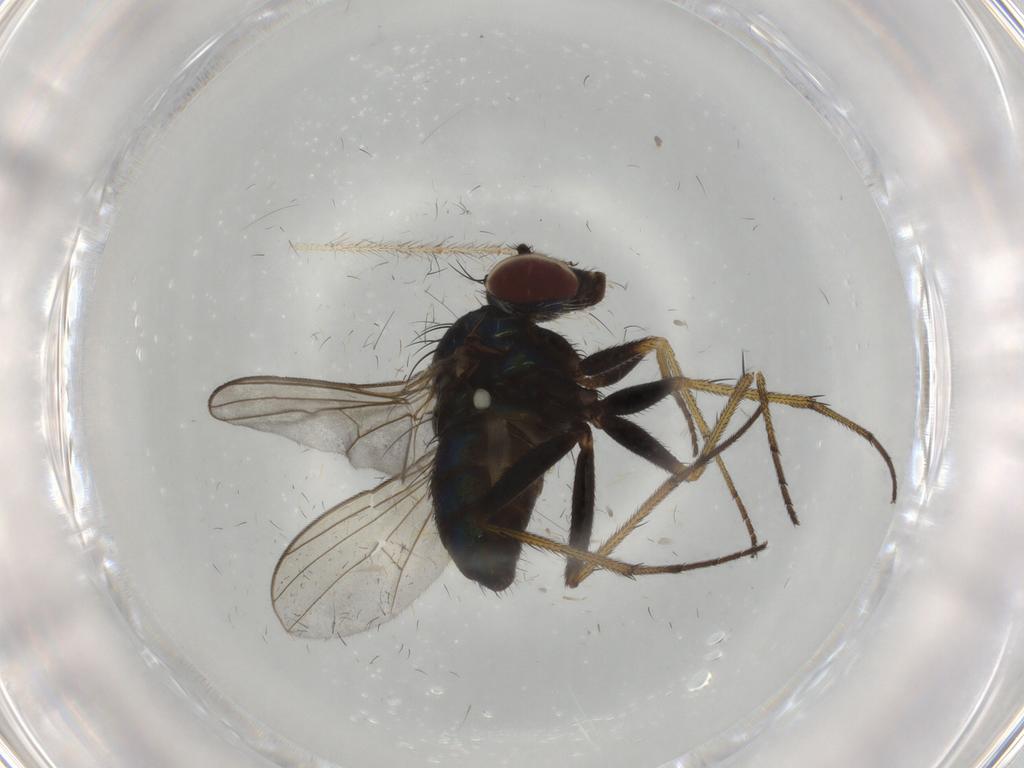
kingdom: Animalia
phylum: Arthropoda
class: Insecta
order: Diptera
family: Dolichopodidae
